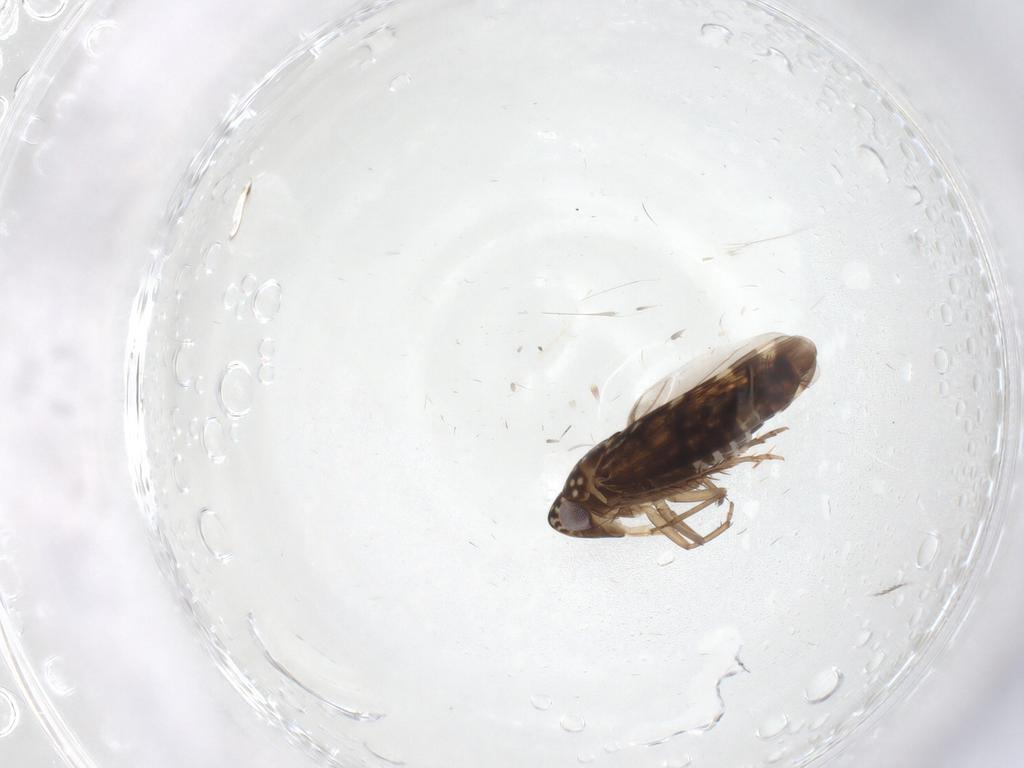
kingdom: Animalia
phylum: Arthropoda
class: Insecta
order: Hemiptera
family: Cicadellidae
